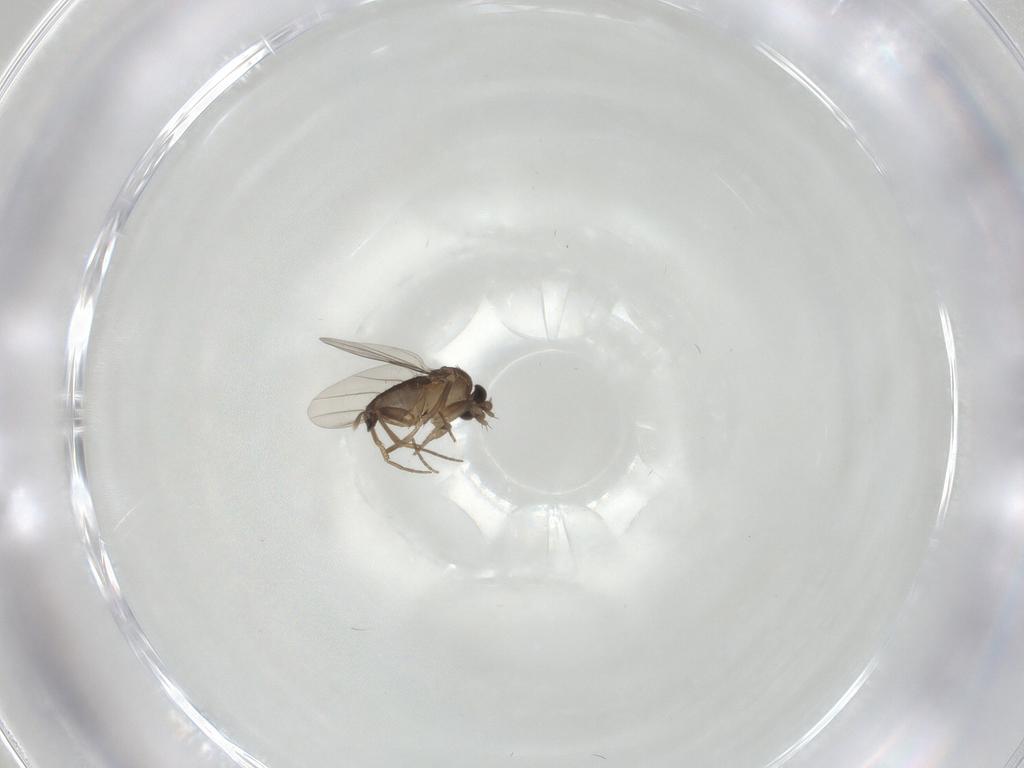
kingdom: Animalia
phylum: Arthropoda
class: Insecta
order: Diptera
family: Phoridae
